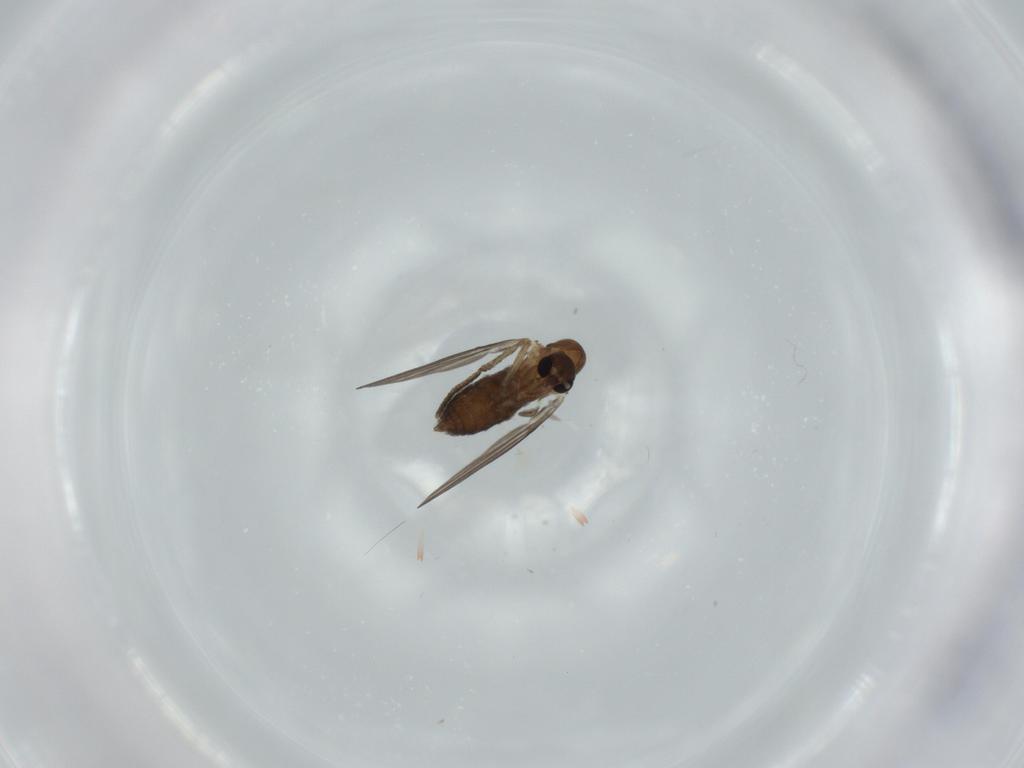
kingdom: Animalia
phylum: Arthropoda
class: Insecta
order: Diptera
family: Psychodidae
